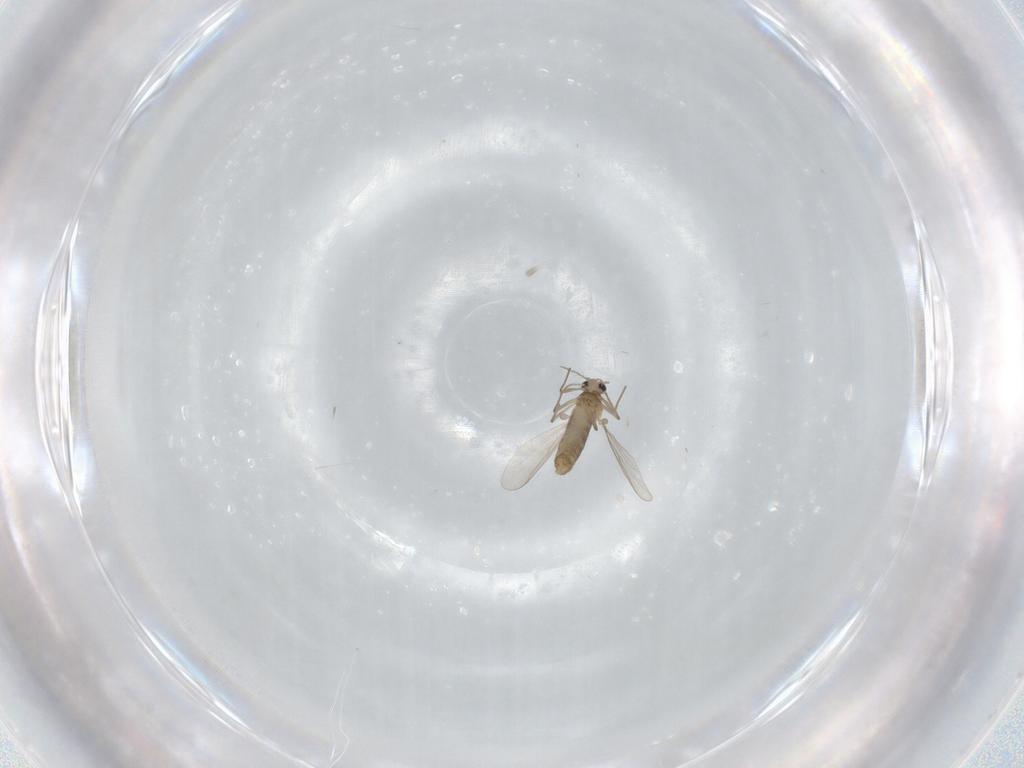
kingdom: Animalia
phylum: Arthropoda
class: Insecta
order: Diptera
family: Chironomidae
